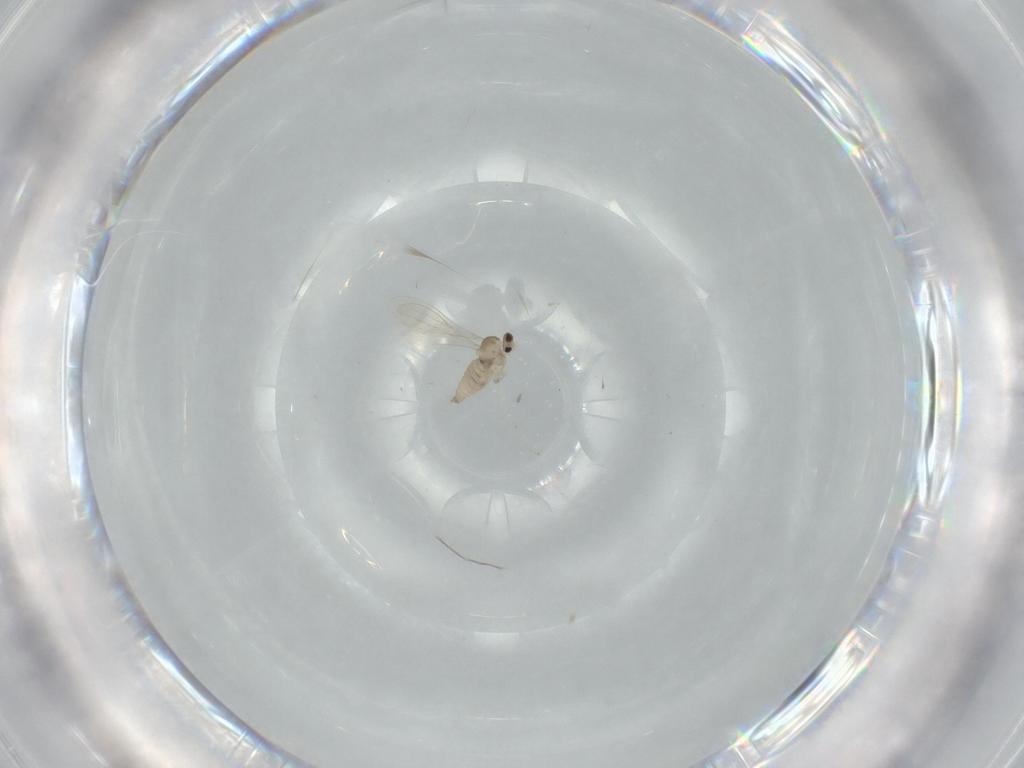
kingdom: Animalia
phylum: Arthropoda
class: Insecta
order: Diptera
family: Cecidomyiidae
